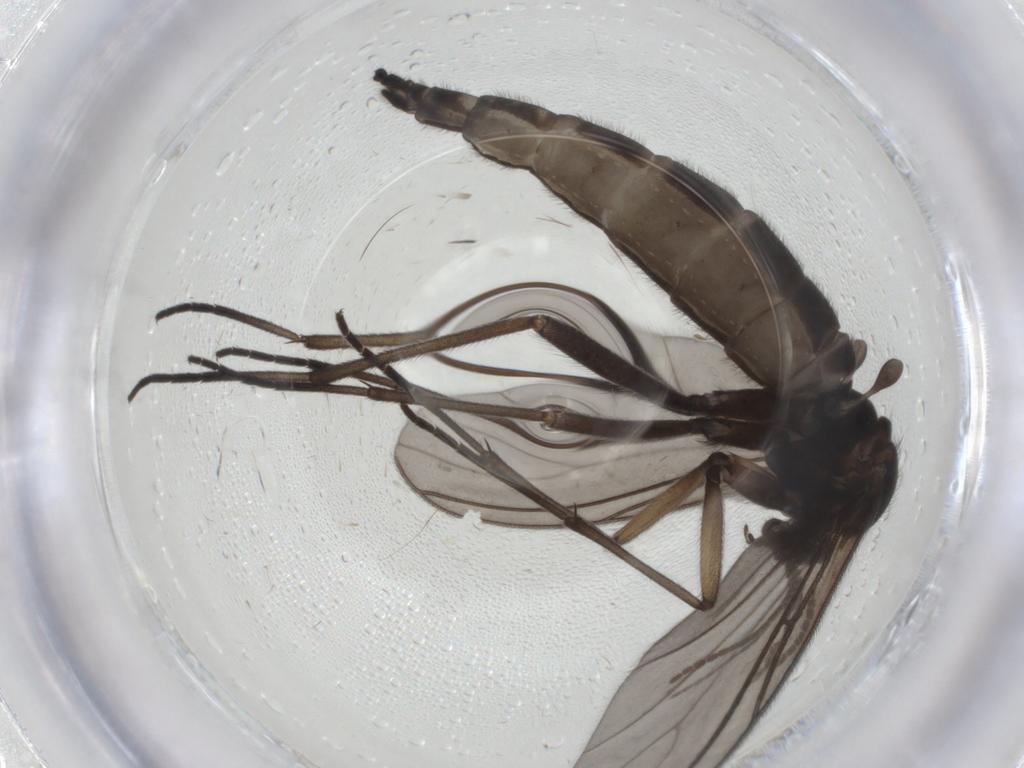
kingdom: Animalia
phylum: Arthropoda
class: Insecta
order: Diptera
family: Sciaridae
